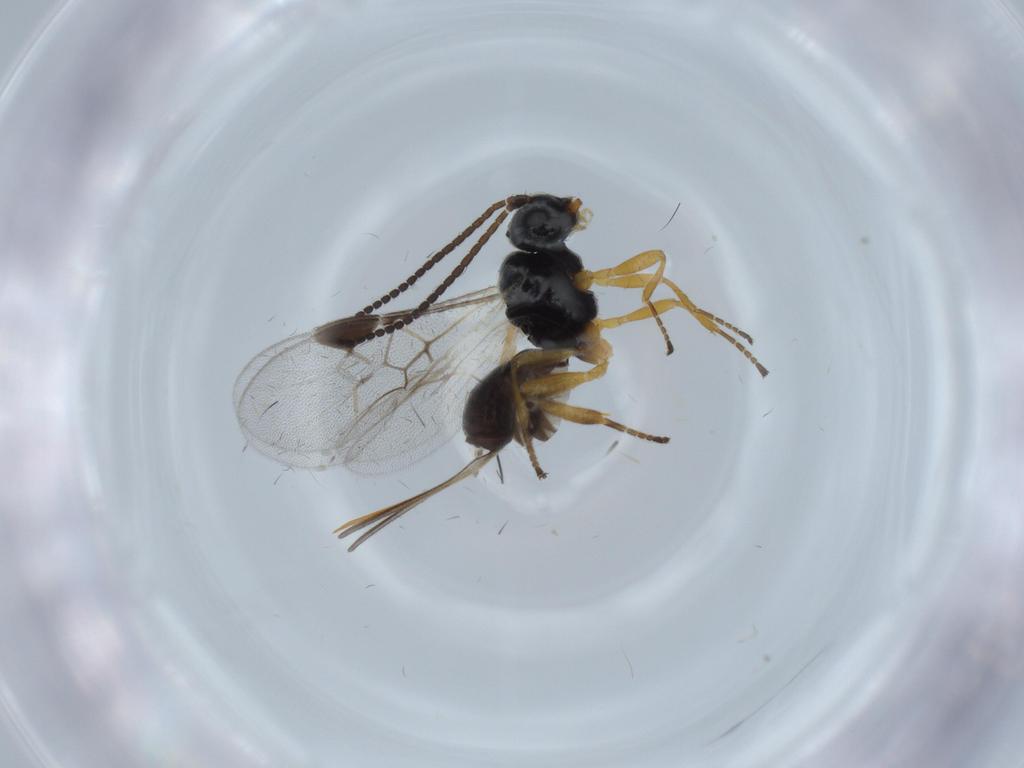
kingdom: Animalia
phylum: Arthropoda
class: Insecta
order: Hymenoptera
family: Braconidae
